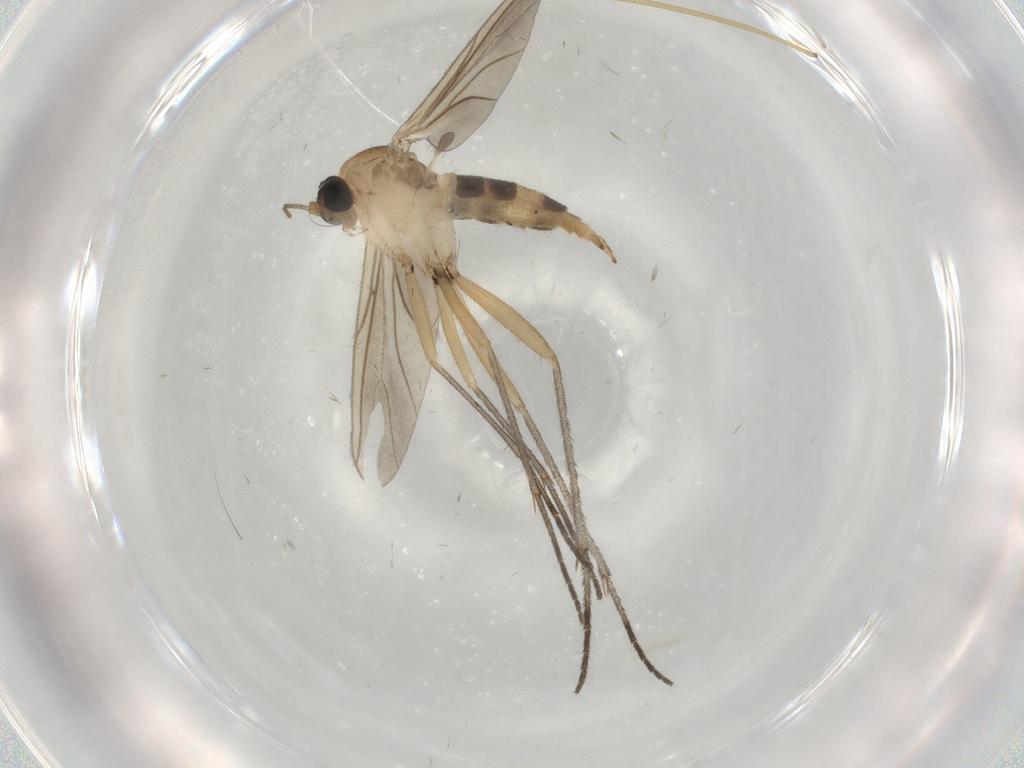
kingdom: Animalia
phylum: Arthropoda
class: Insecta
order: Diptera
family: Limoniidae
